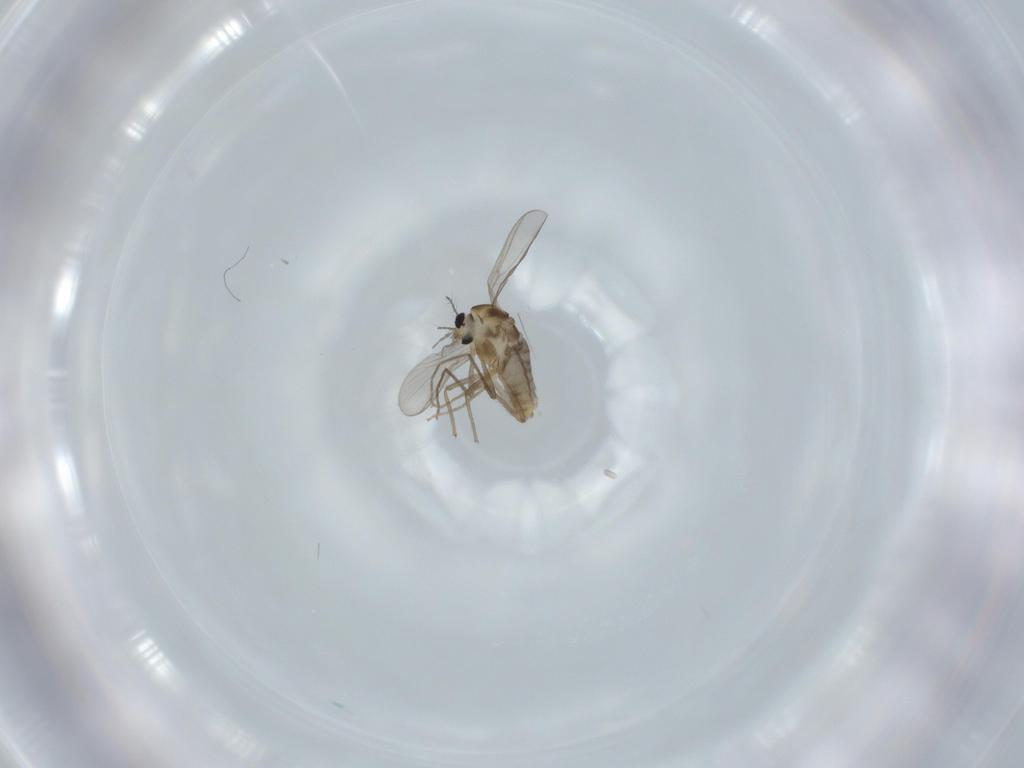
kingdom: Animalia
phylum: Arthropoda
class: Insecta
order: Diptera
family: Chironomidae
